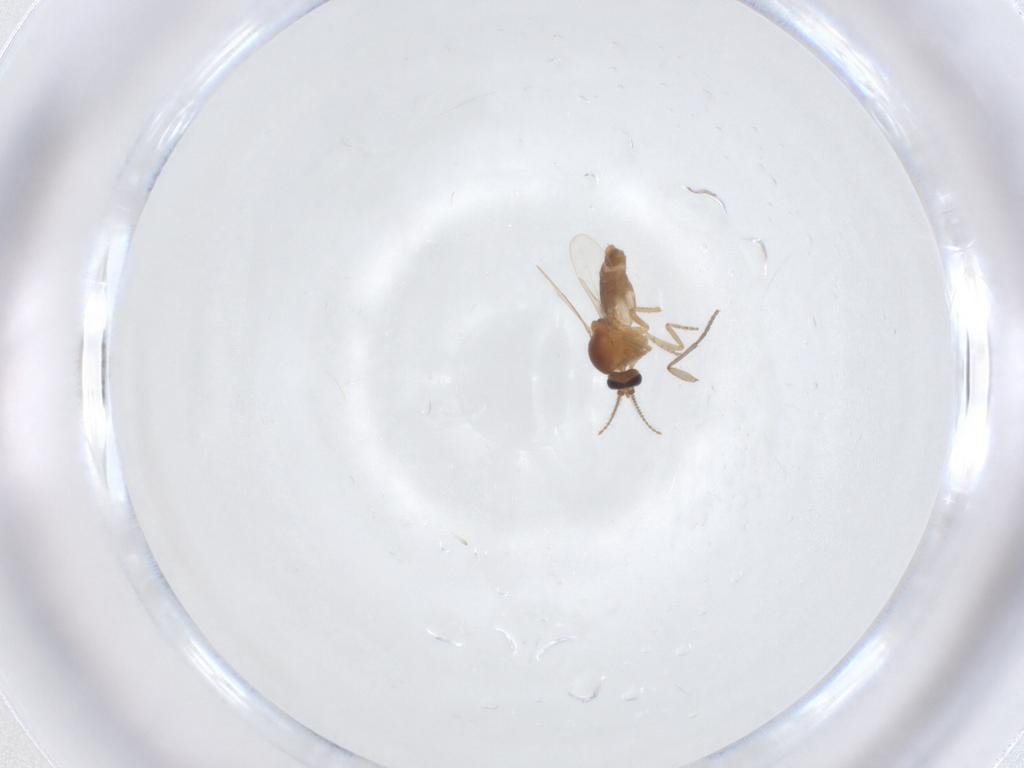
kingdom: Animalia
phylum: Arthropoda
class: Insecta
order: Diptera
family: Ceratopogonidae
